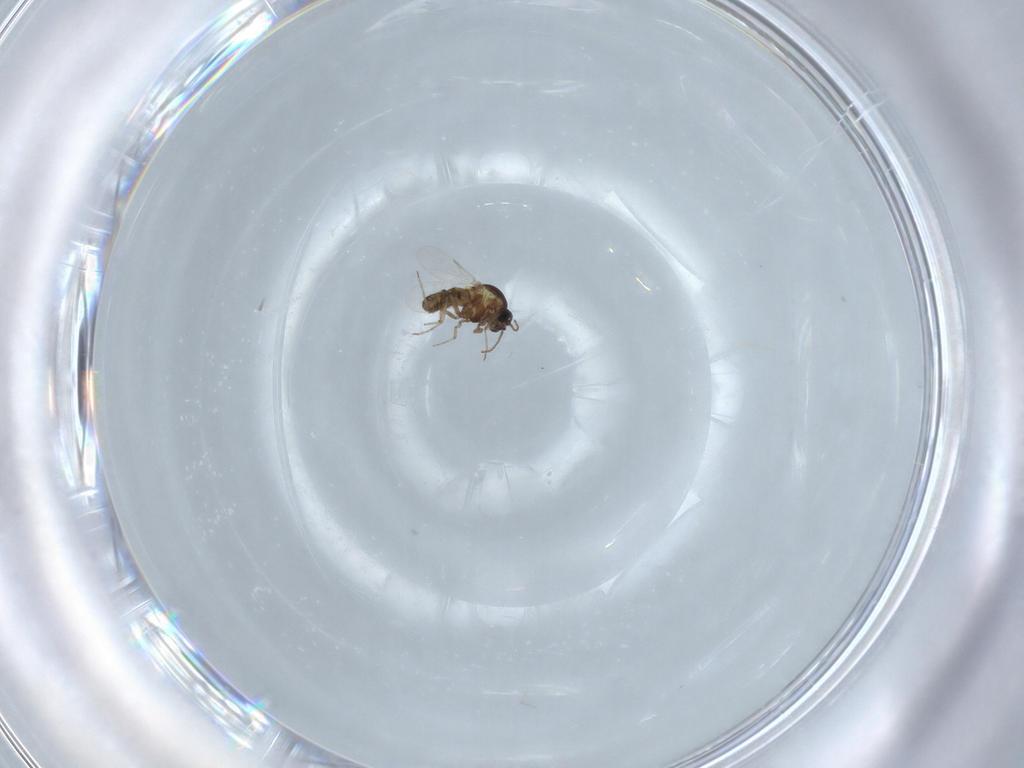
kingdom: Animalia
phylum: Arthropoda
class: Insecta
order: Diptera
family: Ceratopogonidae
